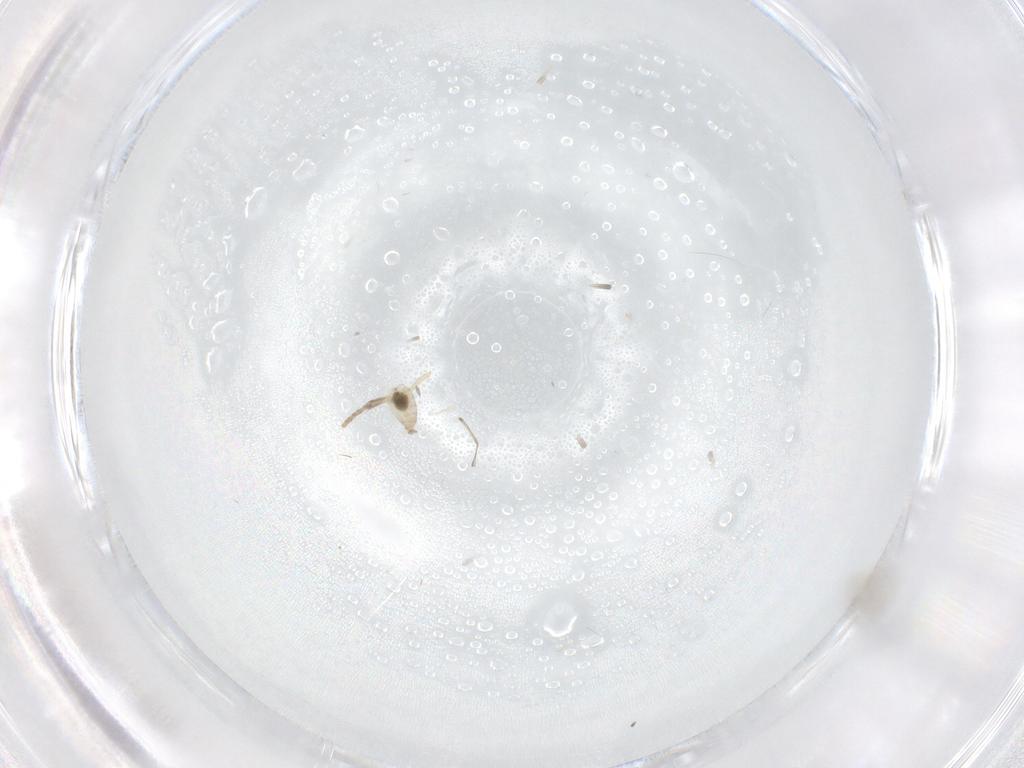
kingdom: Animalia
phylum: Arthropoda
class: Insecta
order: Diptera
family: Cecidomyiidae
